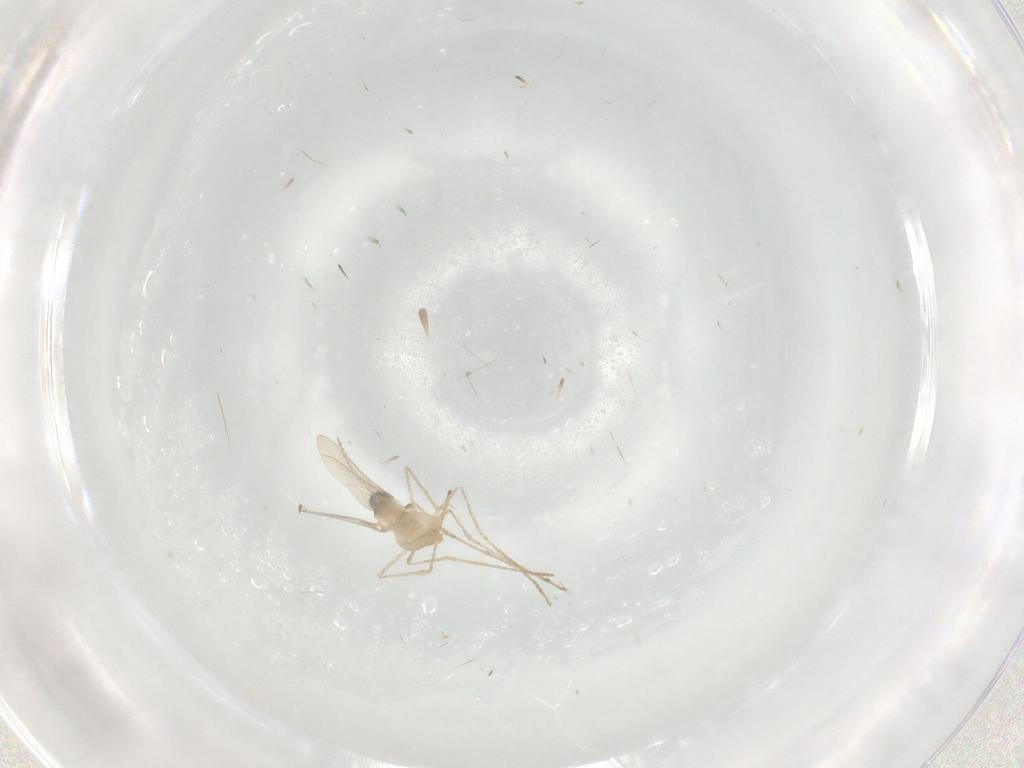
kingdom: Animalia
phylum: Arthropoda
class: Insecta
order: Diptera
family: Cecidomyiidae
